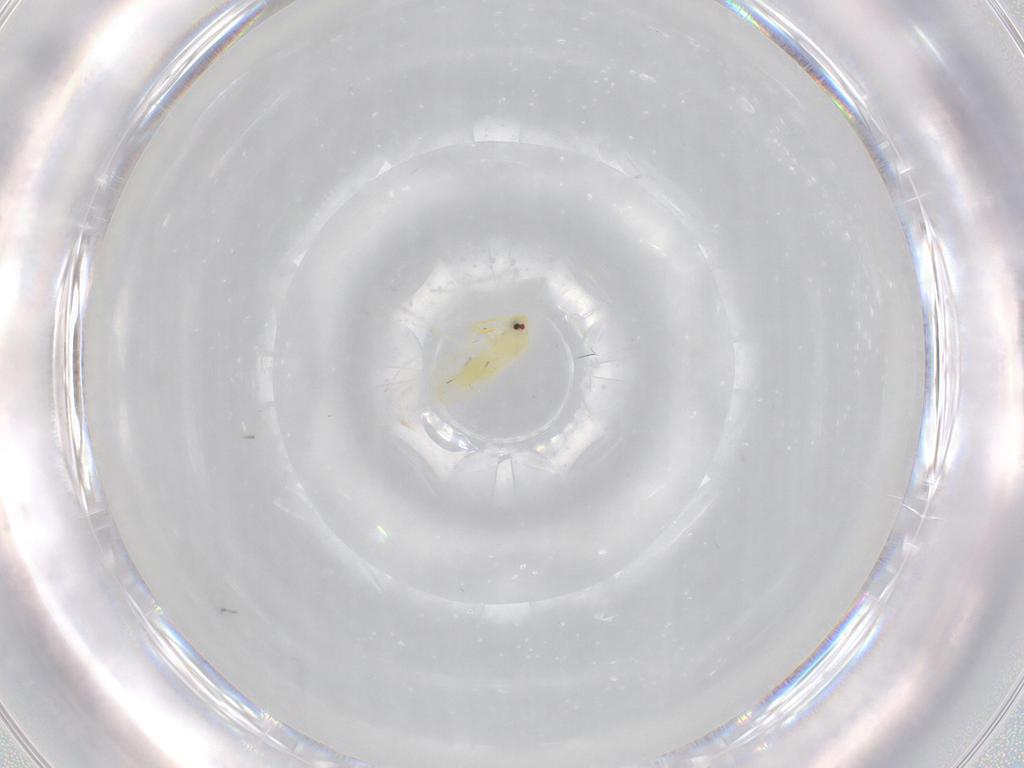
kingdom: Animalia
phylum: Arthropoda
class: Insecta
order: Hemiptera
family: Aleyrodidae
